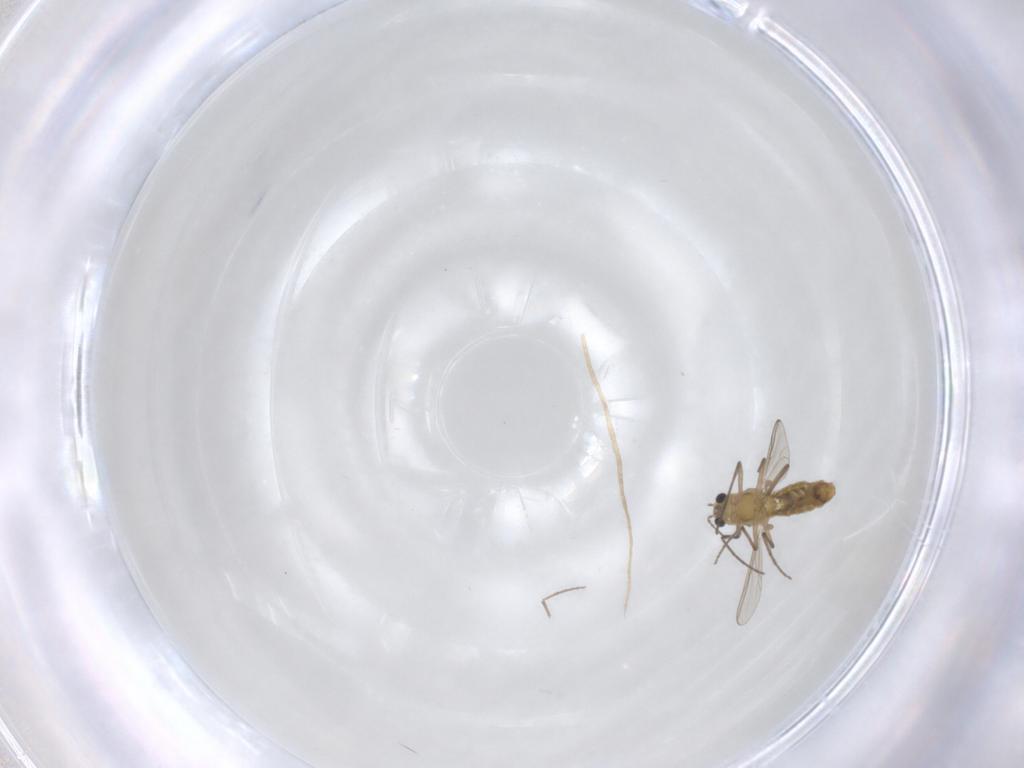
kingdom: Animalia
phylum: Arthropoda
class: Insecta
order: Diptera
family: Chironomidae
